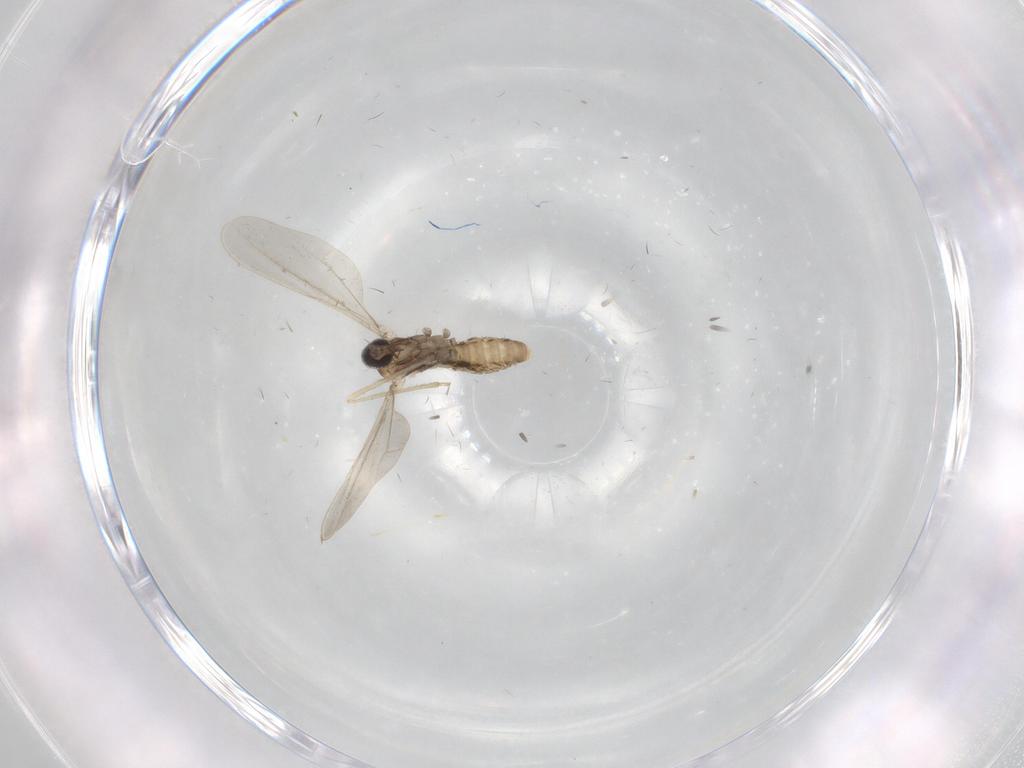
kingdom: Animalia
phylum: Arthropoda
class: Insecta
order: Diptera
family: Cecidomyiidae
